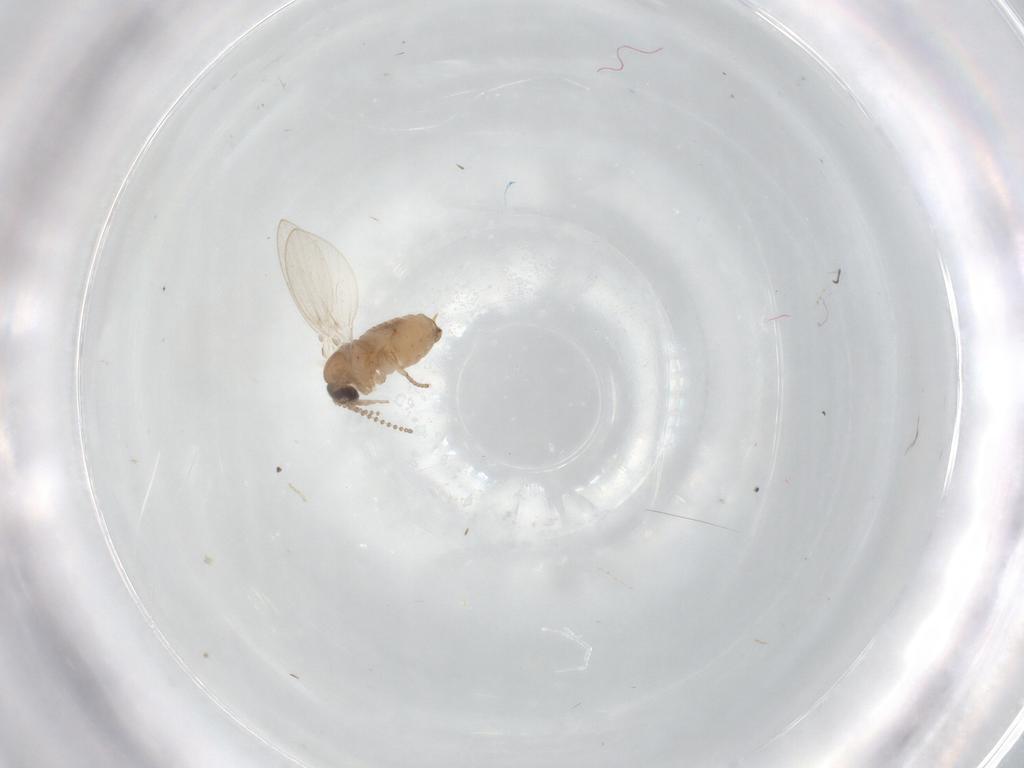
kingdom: Animalia
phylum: Arthropoda
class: Insecta
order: Diptera
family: Psychodidae
